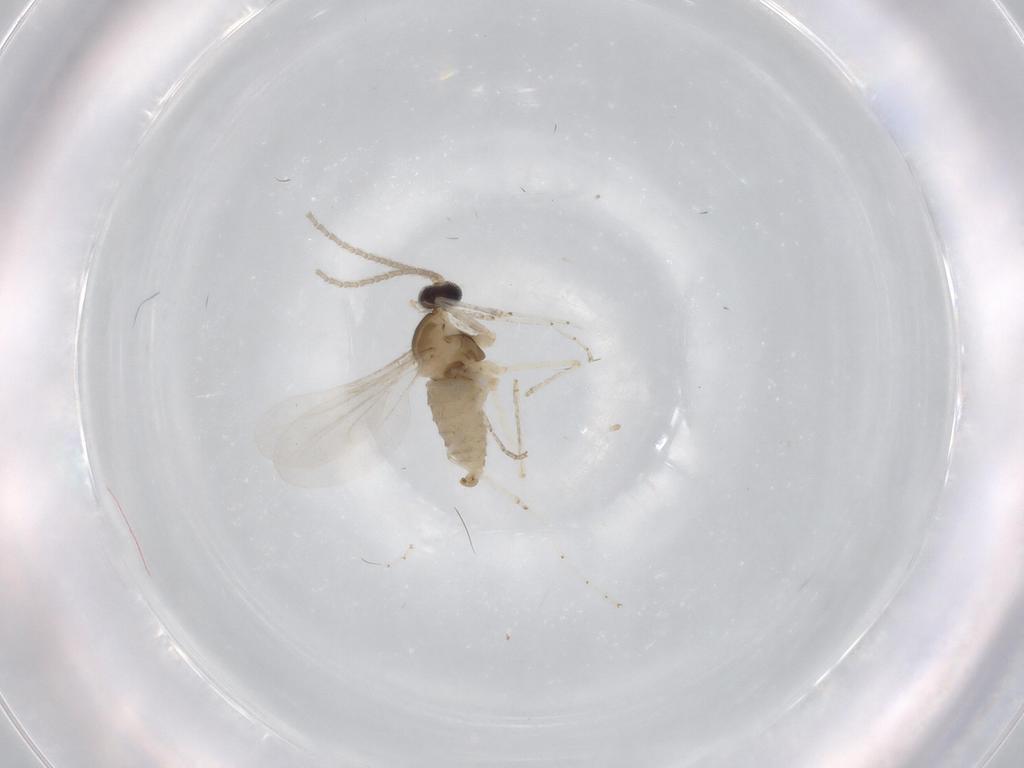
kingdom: Animalia
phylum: Arthropoda
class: Insecta
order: Diptera
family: Cecidomyiidae
